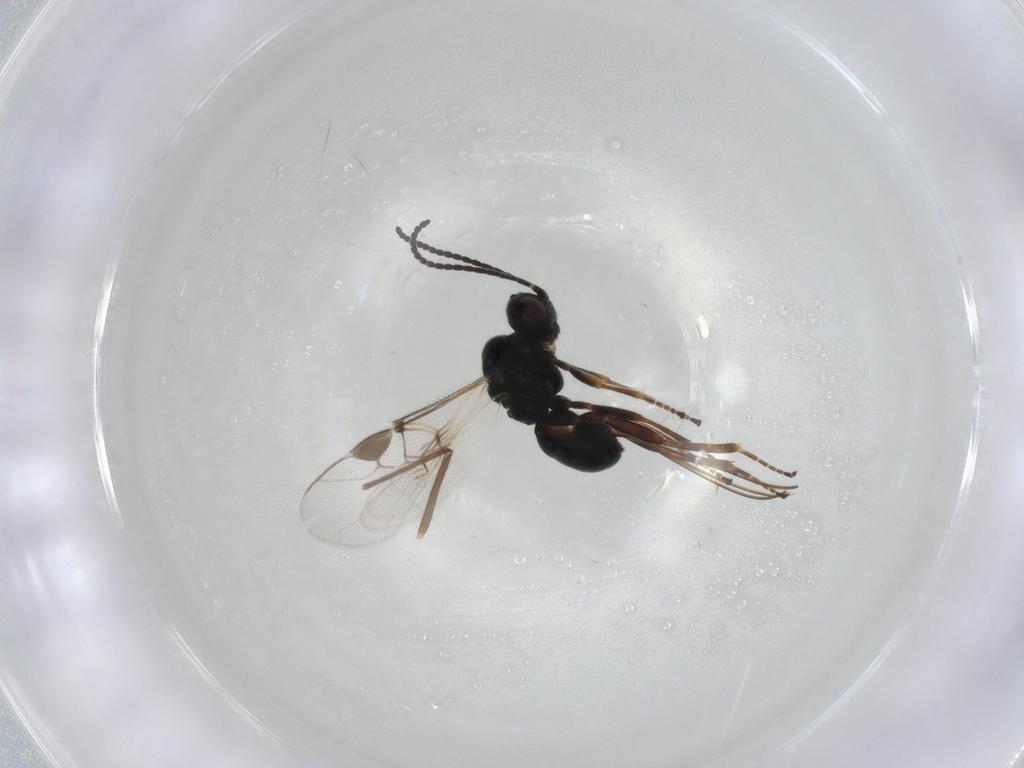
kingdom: Animalia
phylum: Arthropoda
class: Insecta
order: Hymenoptera
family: Braconidae
